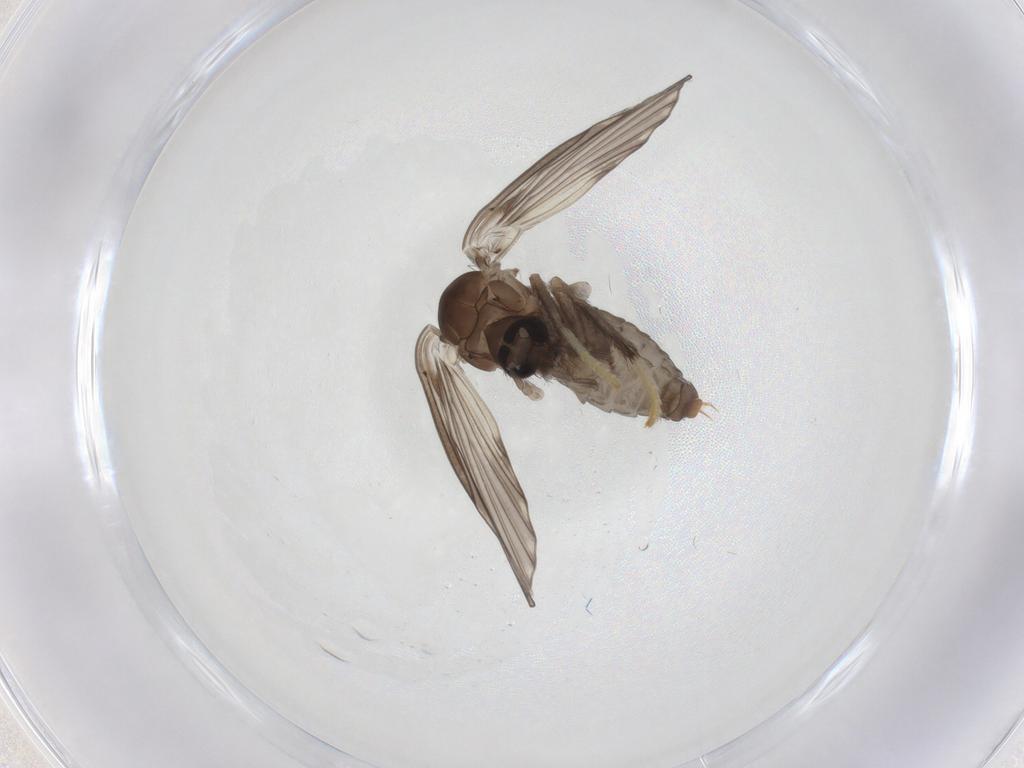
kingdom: Animalia
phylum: Arthropoda
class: Insecta
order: Diptera
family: Psychodidae
